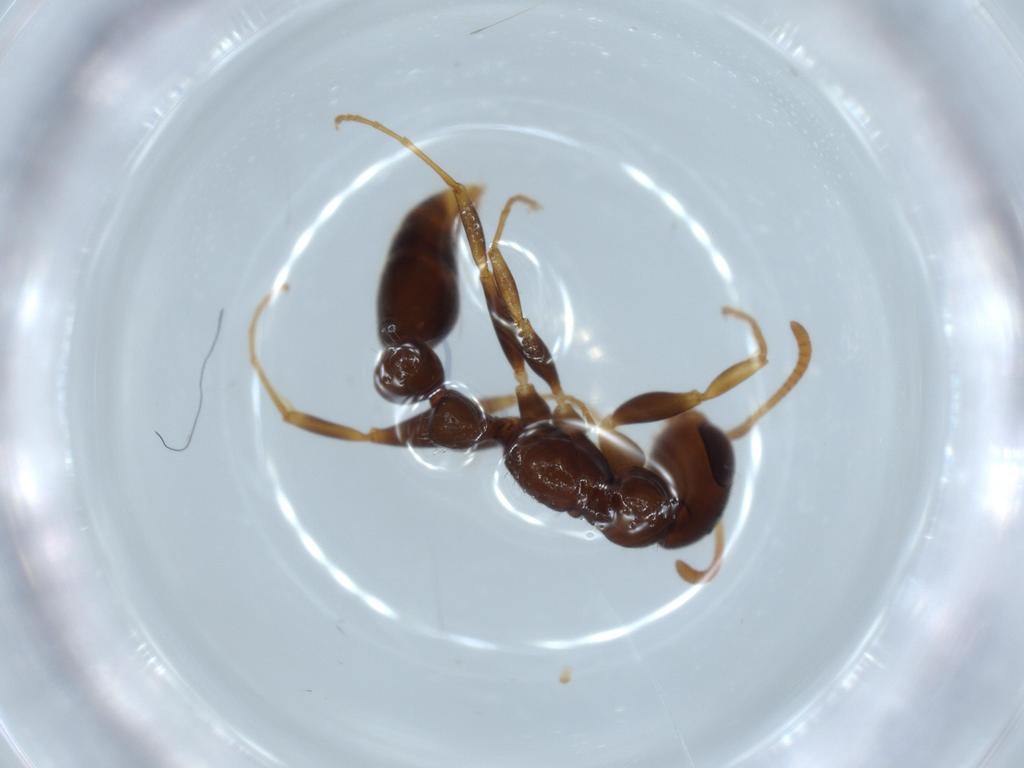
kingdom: Animalia
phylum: Arthropoda
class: Insecta
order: Hymenoptera
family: Formicidae
